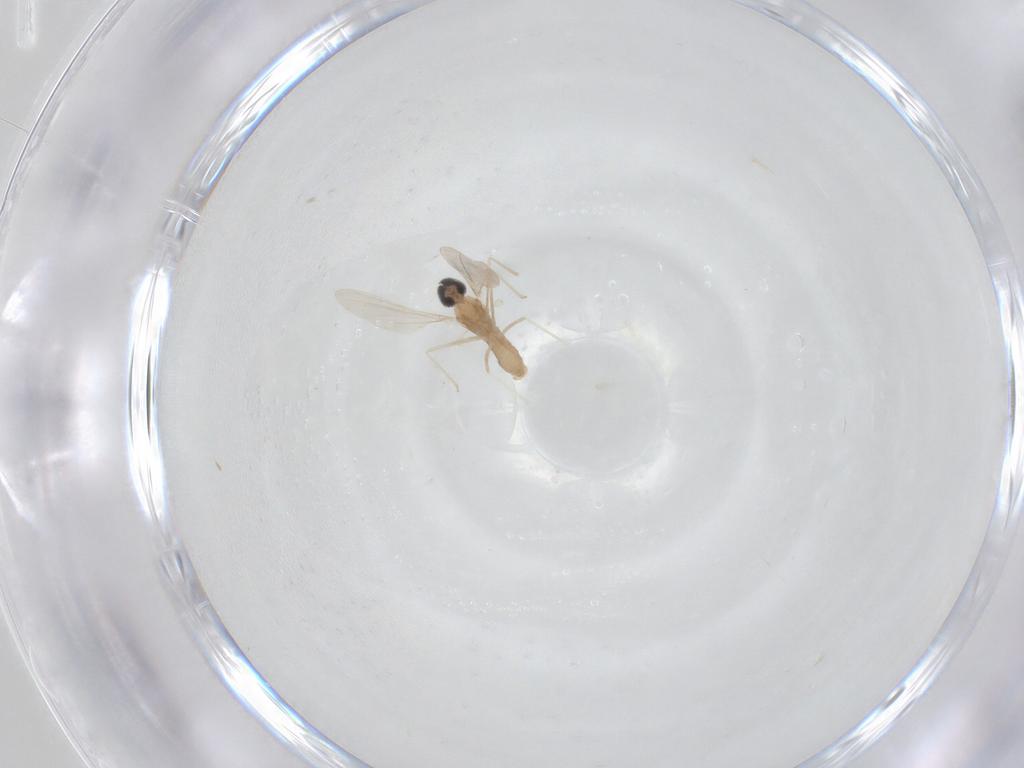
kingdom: Animalia
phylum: Arthropoda
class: Insecta
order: Diptera
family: Cecidomyiidae
